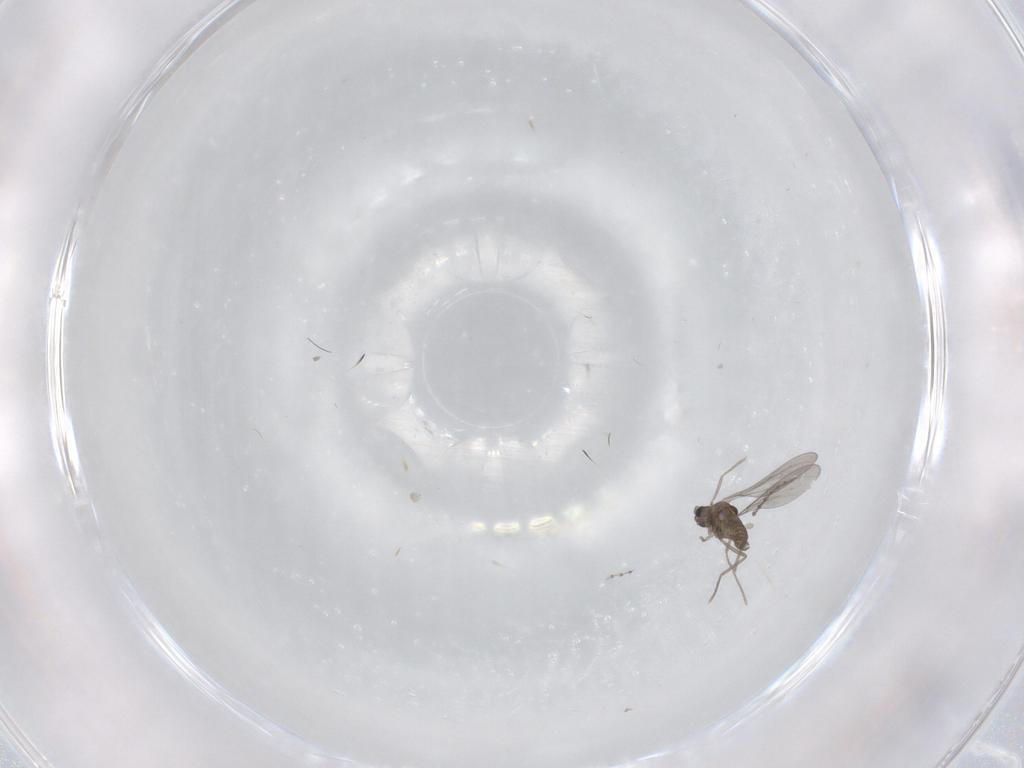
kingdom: Animalia
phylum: Arthropoda
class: Insecta
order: Diptera
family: Cecidomyiidae
